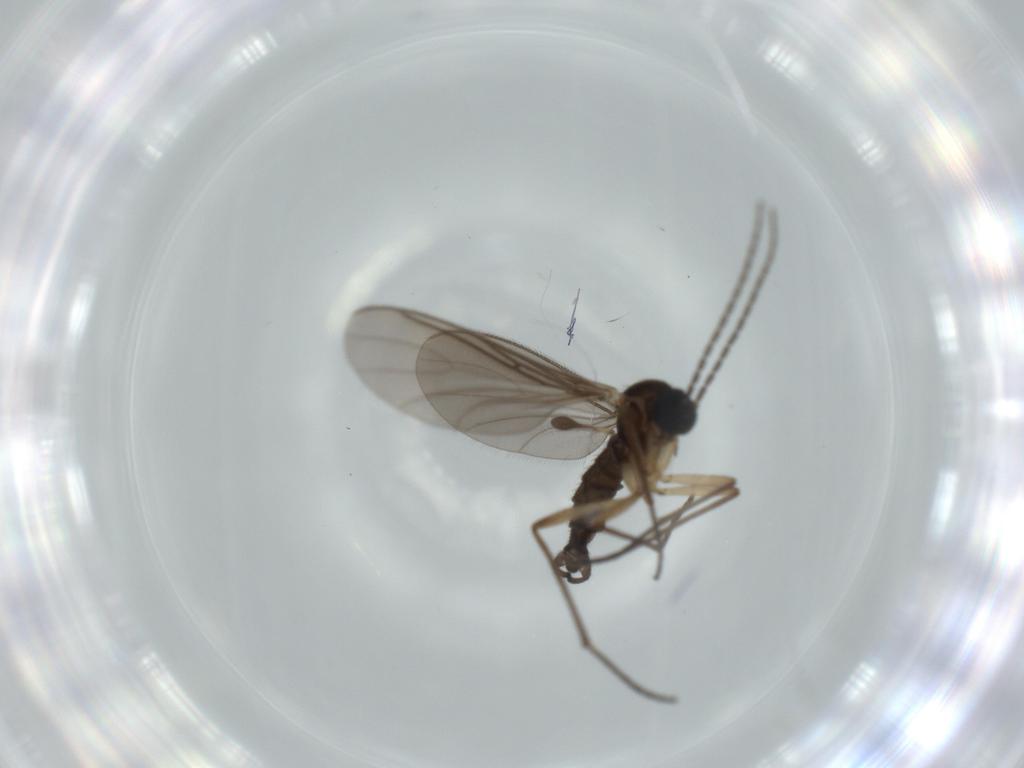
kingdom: Animalia
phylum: Arthropoda
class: Insecta
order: Diptera
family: Sciaridae
